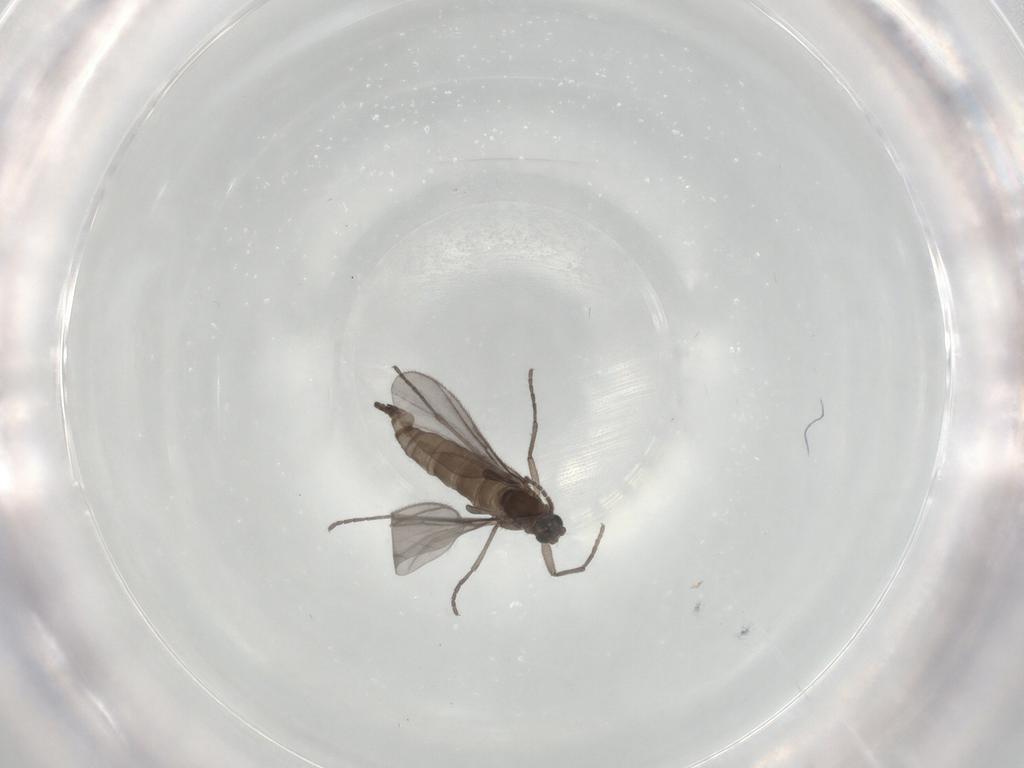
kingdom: Animalia
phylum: Arthropoda
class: Insecta
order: Diptera
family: Sciaridae
